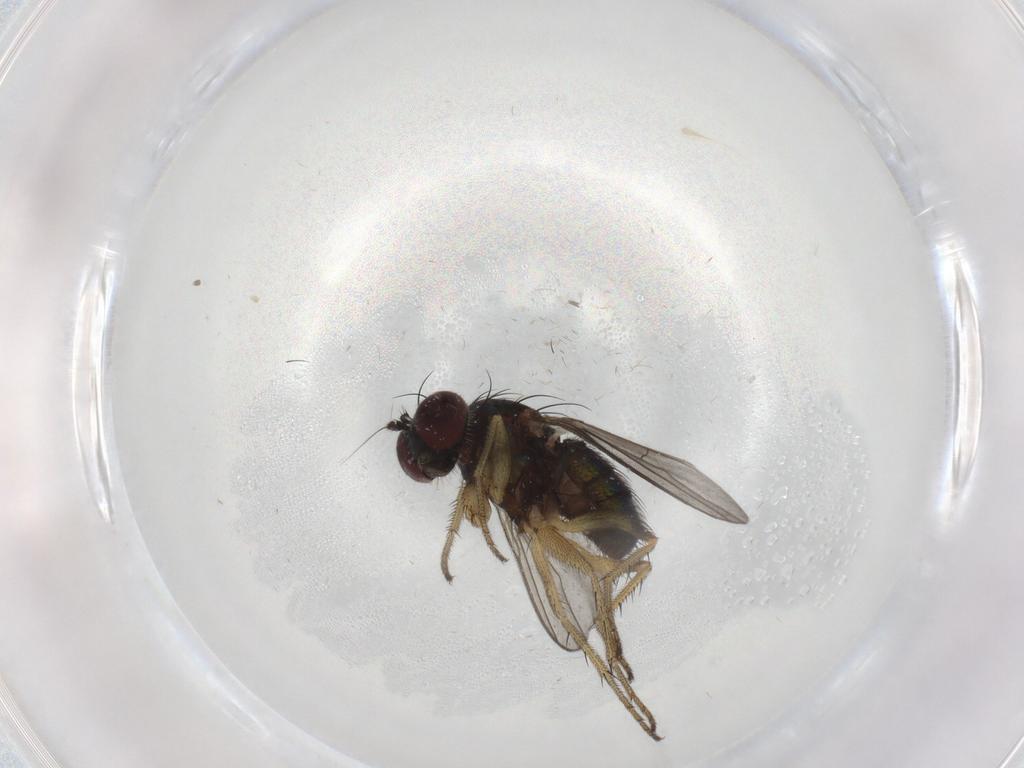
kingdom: Animalia
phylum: Arthropoda
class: Insecta
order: Diptera
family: Dolichopodidae
